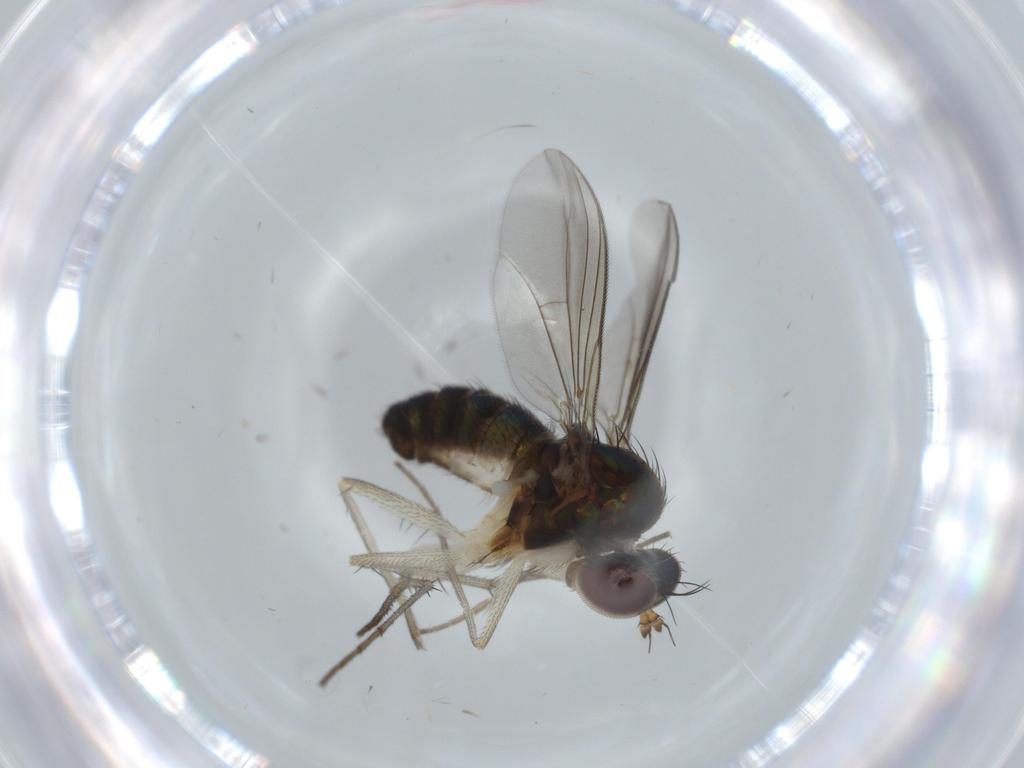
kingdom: Animalia
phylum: Arthropoda
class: Insecta
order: Diptera
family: Dolichopodidae
